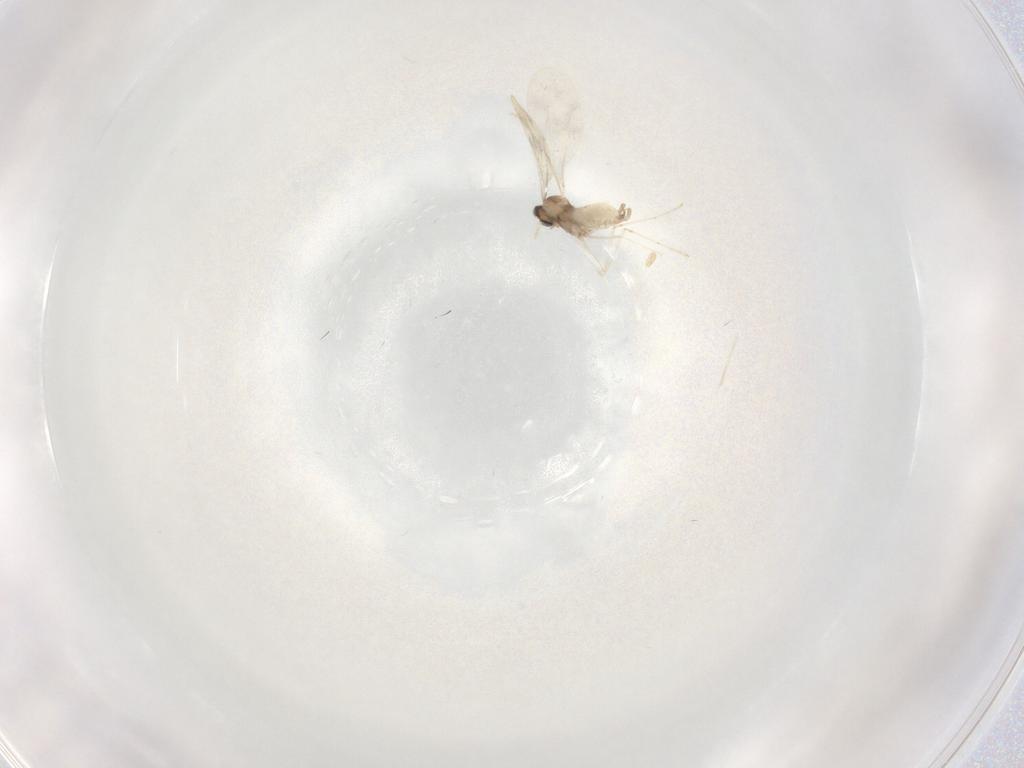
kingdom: Animalia
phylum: Arthropoda
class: Insecta
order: Diptera
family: Cecidomyiidae
